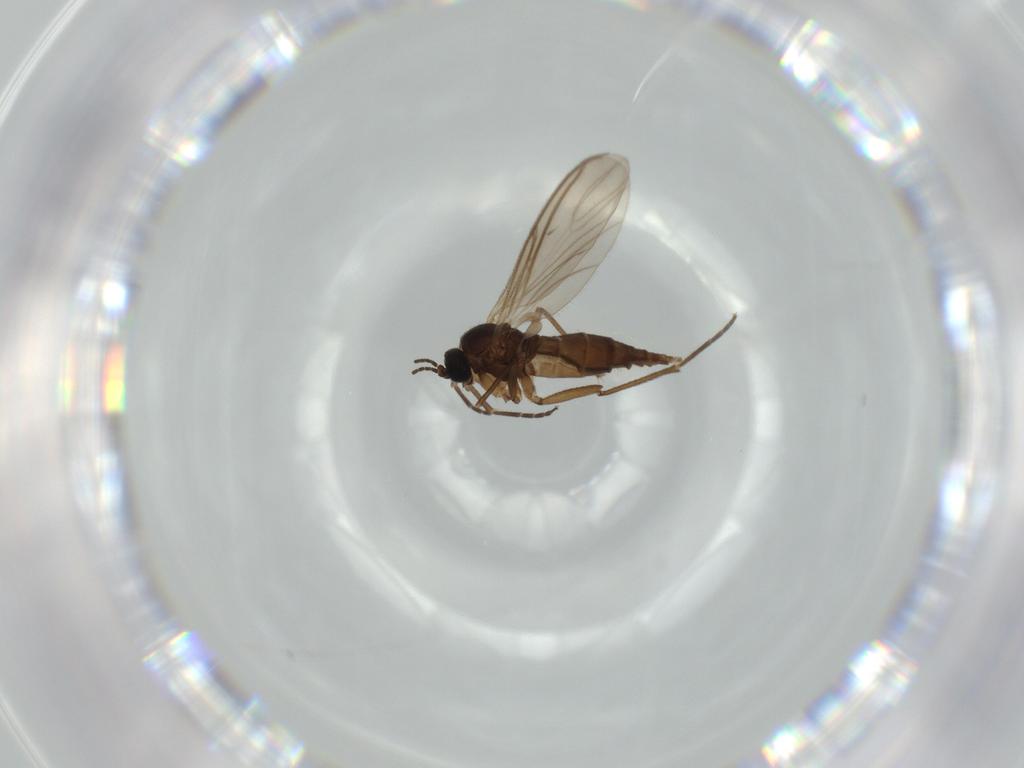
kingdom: Animalia
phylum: Arthropoda
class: Insecta
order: Diptera
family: Sciaridae
